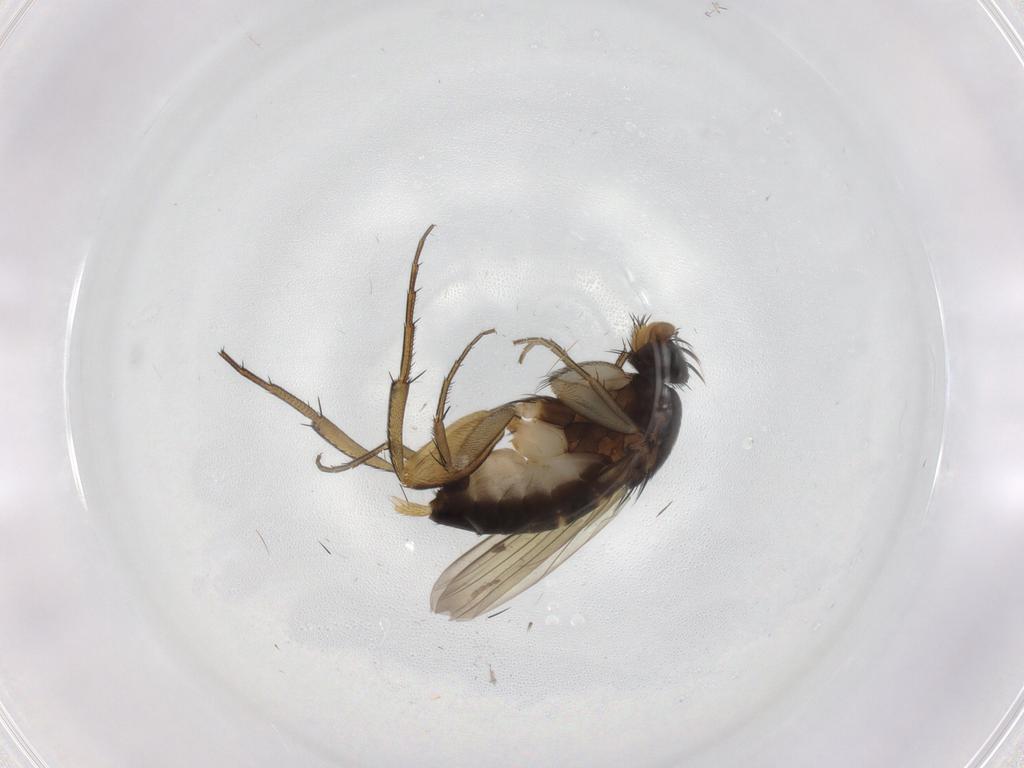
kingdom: Animalia
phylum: Arthropoda
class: Insecta
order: Diptera
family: Phoridae
